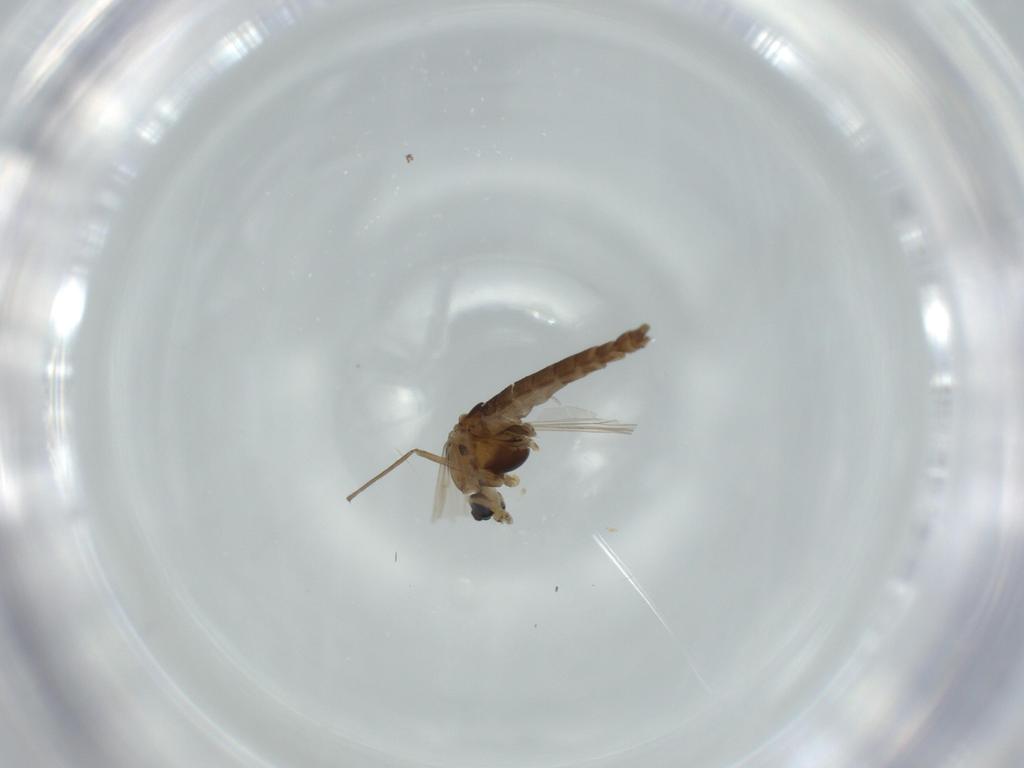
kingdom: Animalia
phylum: Arthropoda
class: Insecta
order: Diptera
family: Chironomidae
